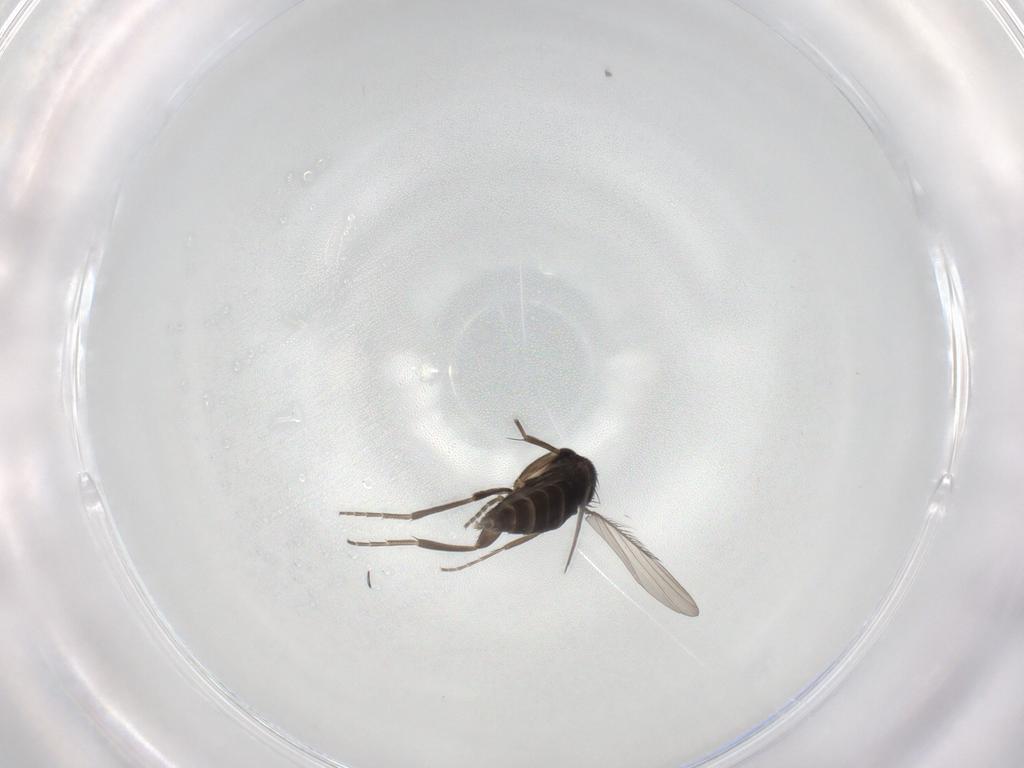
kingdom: Animalia
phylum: Arthropoda
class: Insecta
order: Diptera
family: Phoridae
